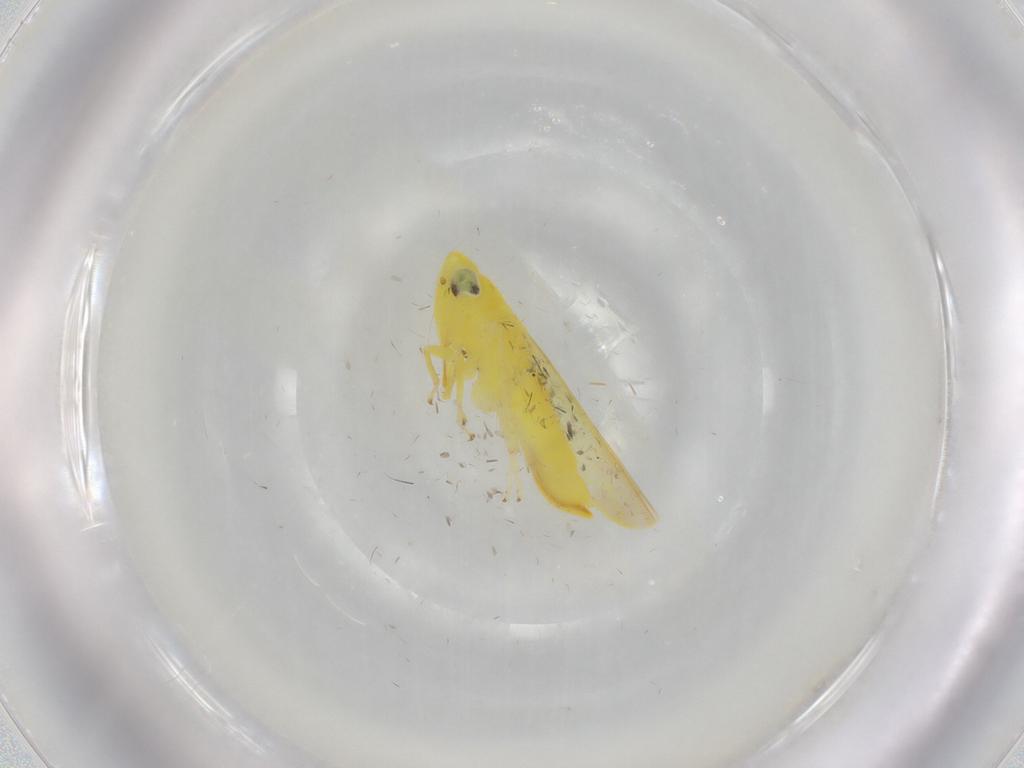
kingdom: Animalia
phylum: Arthropoda
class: Insecta
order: Hemiptera
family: Cicadellidae
